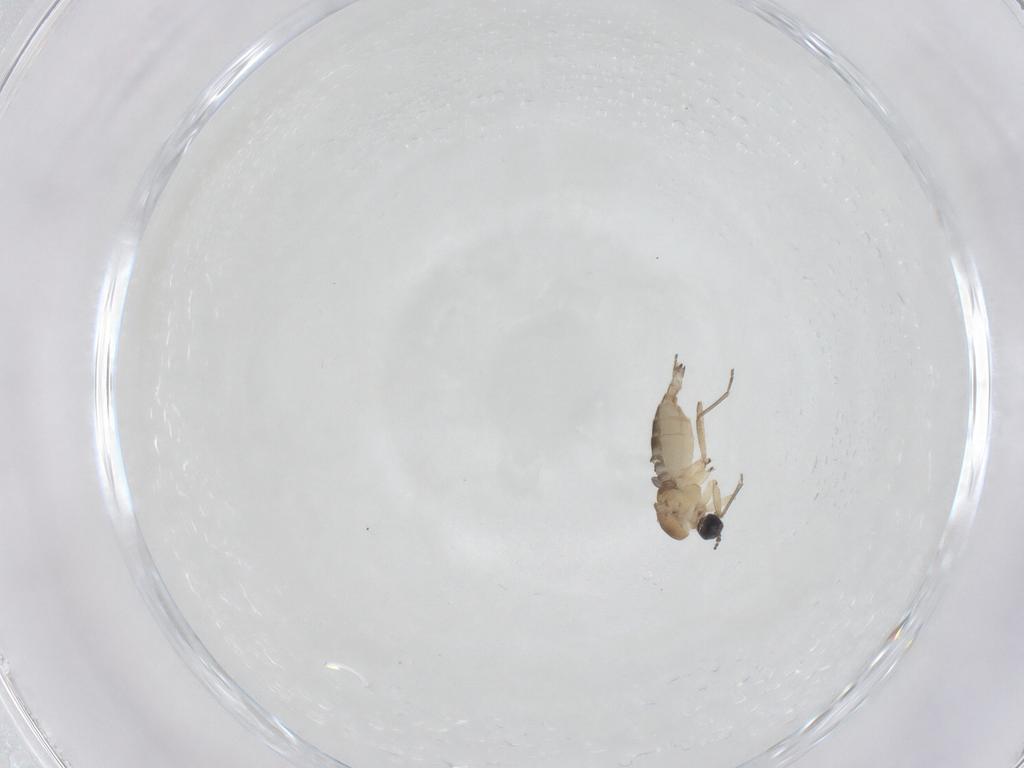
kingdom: Animalia
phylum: Arthropoda
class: Insecta
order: Diptera
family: Sciaridae
